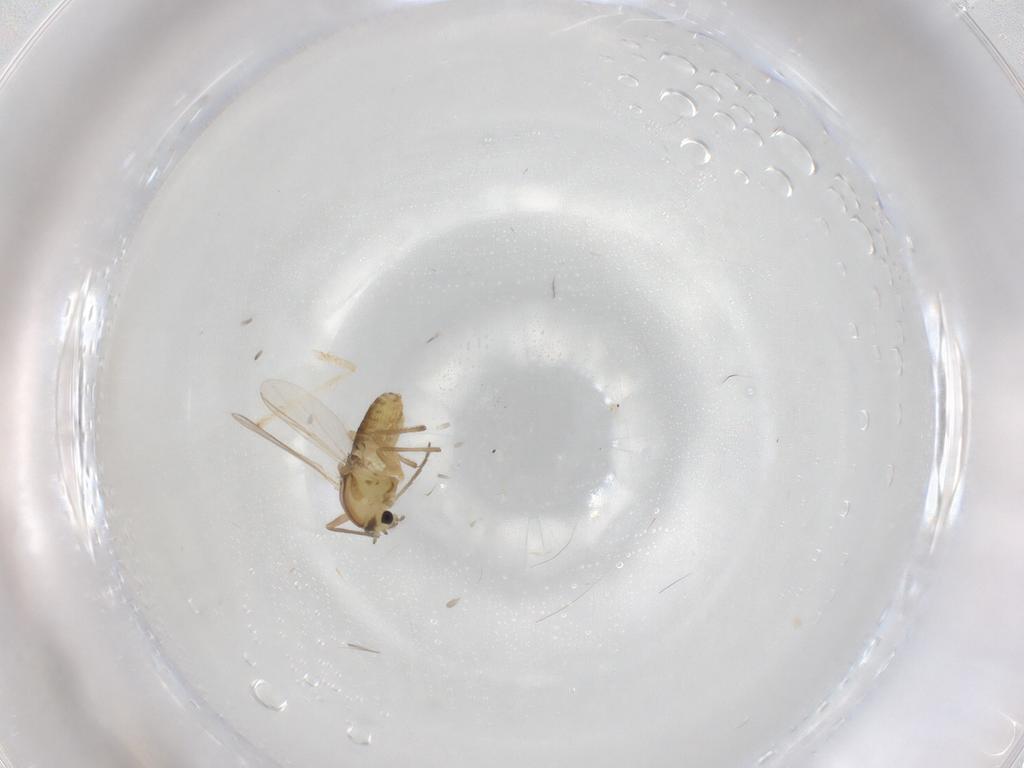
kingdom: Animalia
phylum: Arthropoda
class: Insecta
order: Diptera
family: Chironomidae
